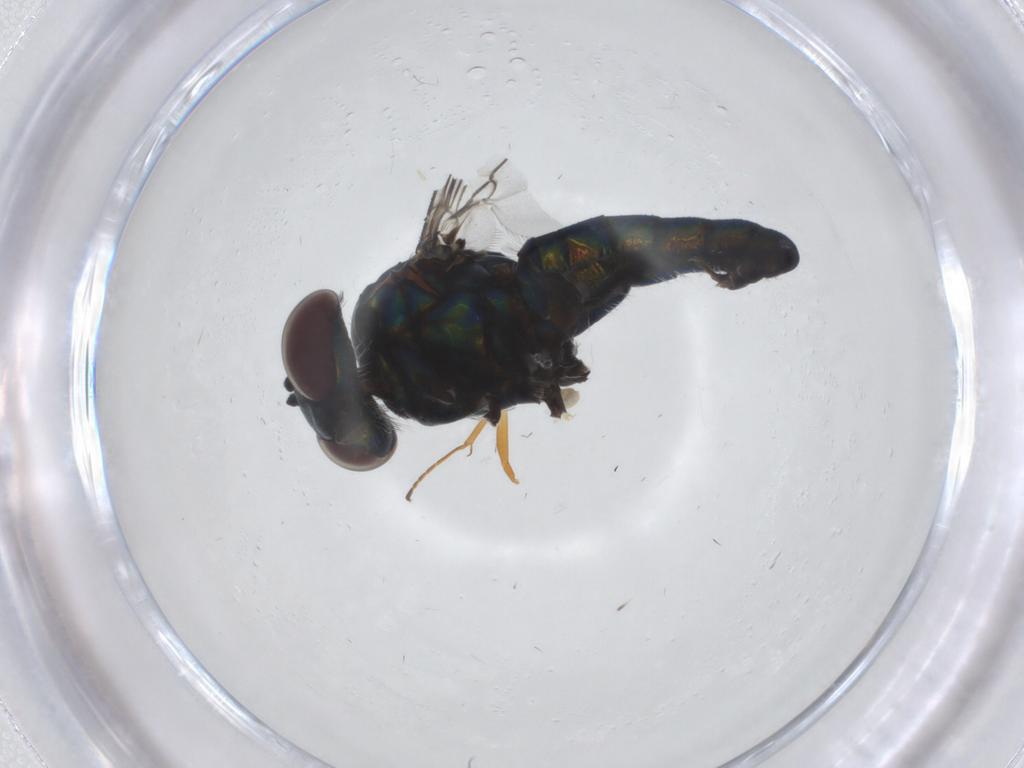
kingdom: Animalia
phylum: Arthropoda
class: Insecta
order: Diptera
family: Dolichopodidae
